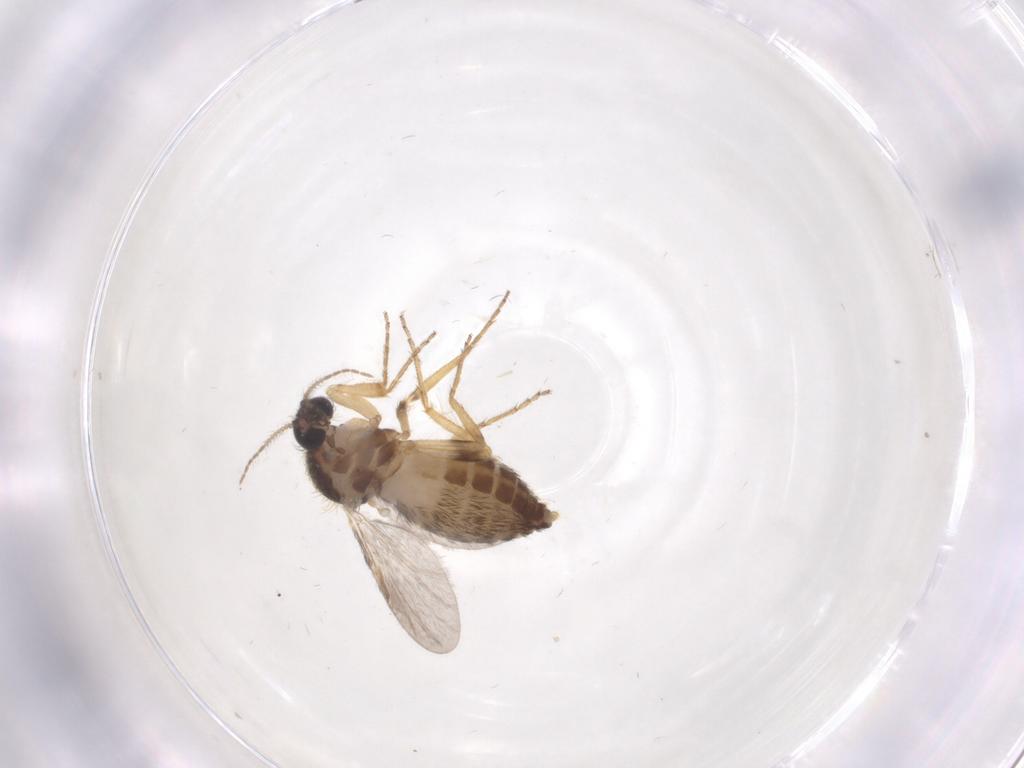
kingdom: Animalia
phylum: Arthropoda
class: Insecta
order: Diptera
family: Ceratopogonidae
